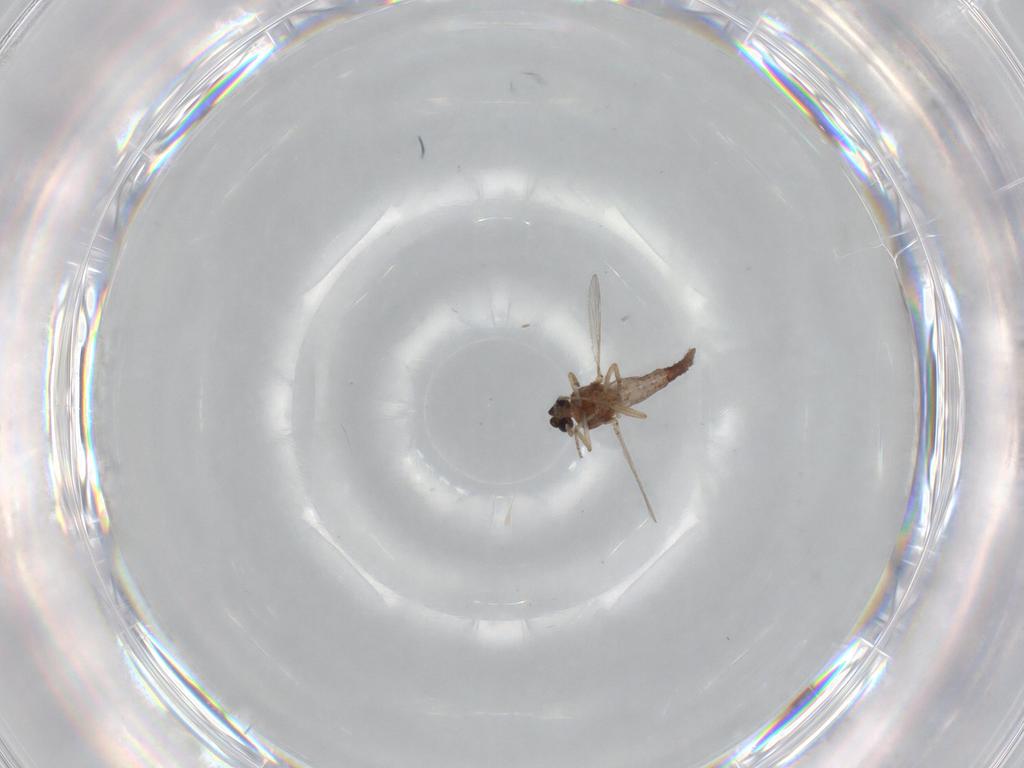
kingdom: Animalia
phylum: Arthropoda
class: Insecta
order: Diptera
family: Ceratopogonidae
